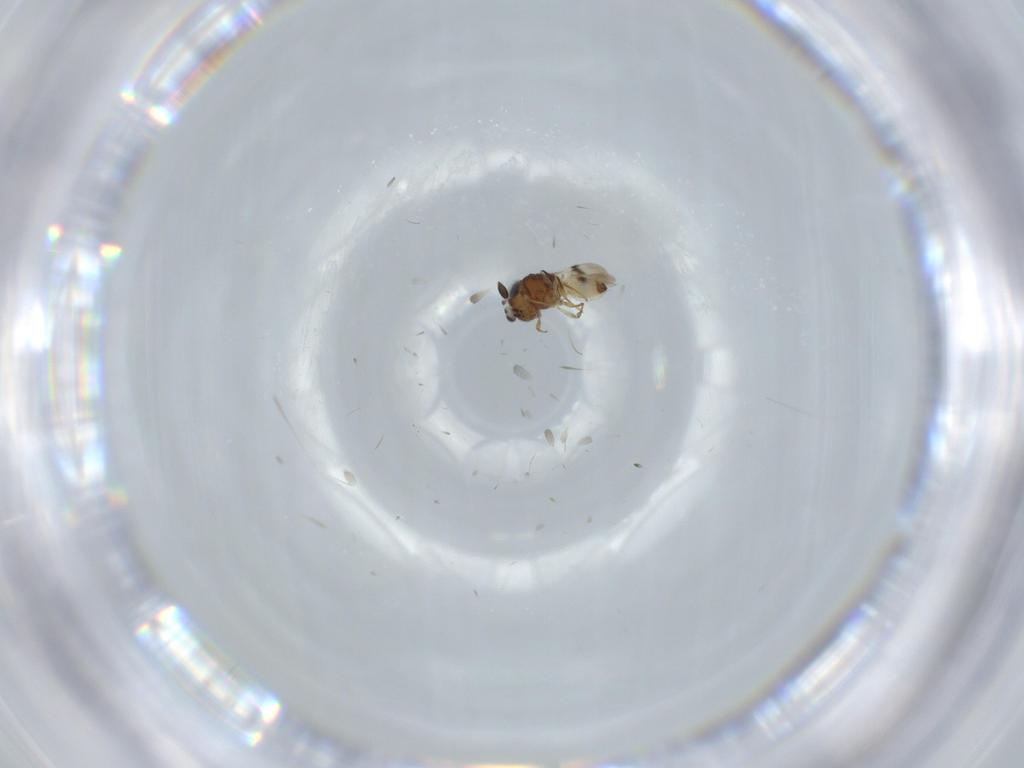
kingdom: Animalia
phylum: Arthropoda
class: Arachnida
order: Araneae
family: Pholcidae
